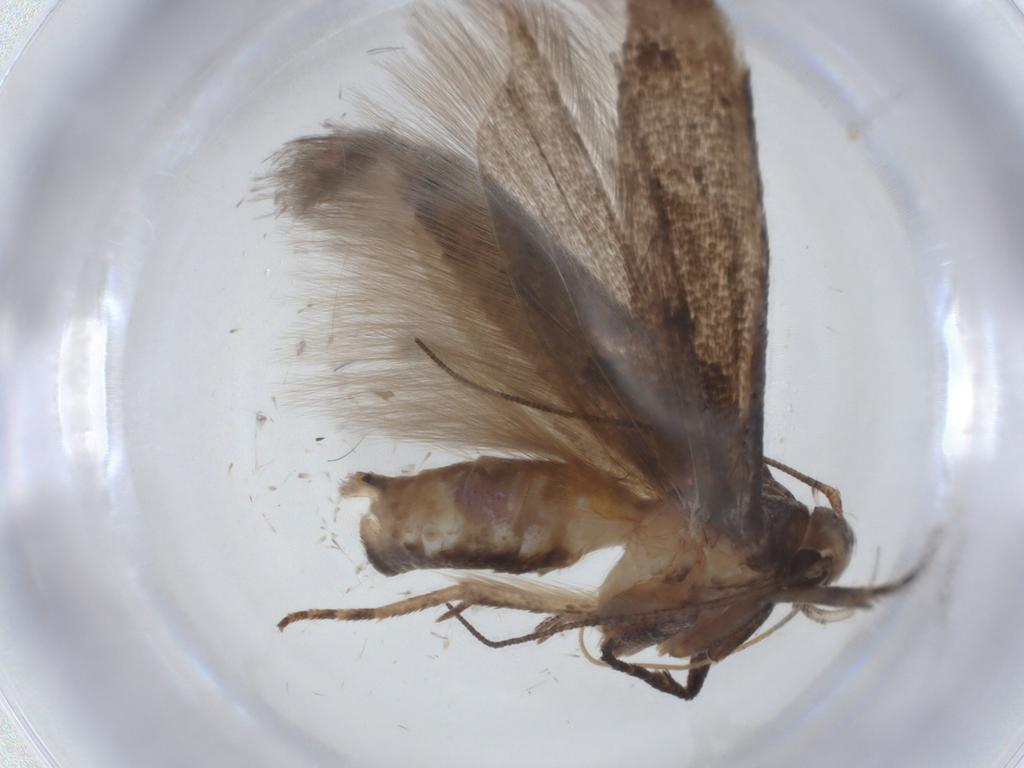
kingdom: Animalia
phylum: Arthropoda
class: Insecta
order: Lepidoptera
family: Gelechiidae
